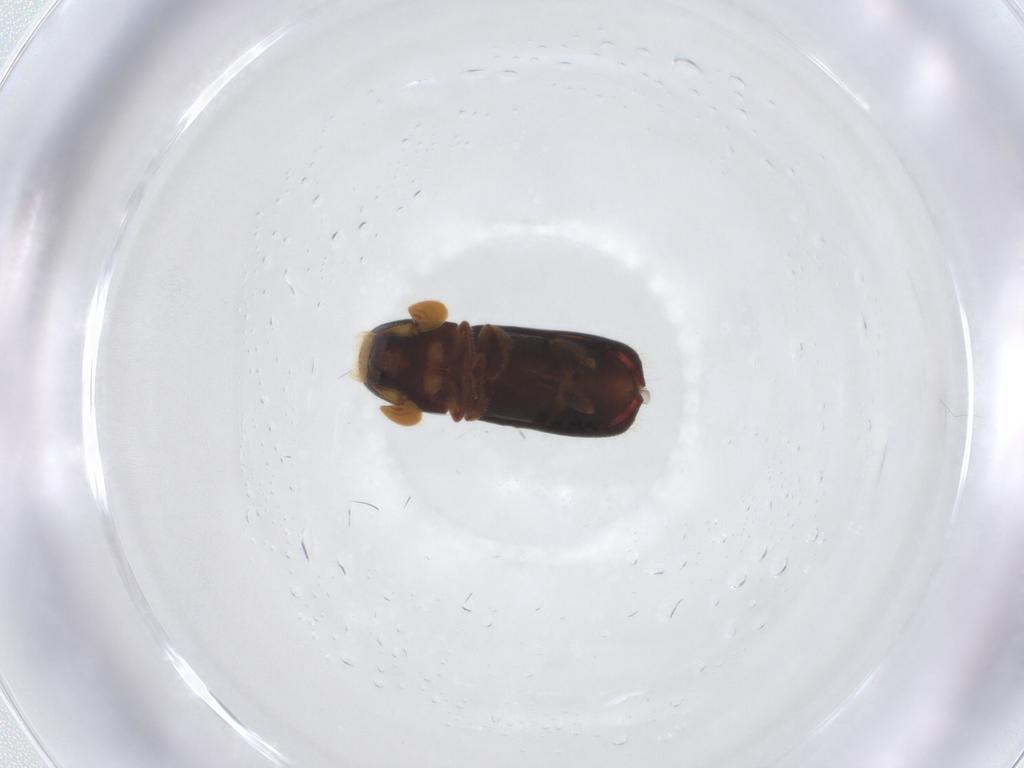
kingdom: Animalia
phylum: Arthropoda
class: Insecta
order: Coleoptera
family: Curculionidae
